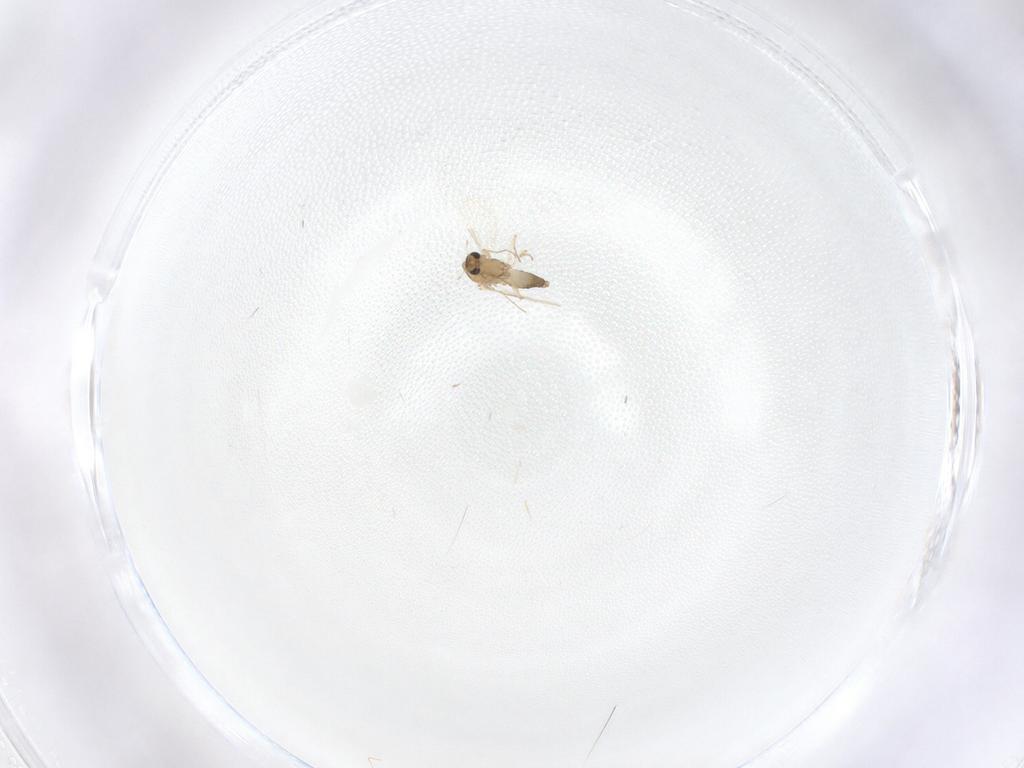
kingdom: Animalia
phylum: Arthropoda
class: Insecta
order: Diptera
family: Chironomidae
